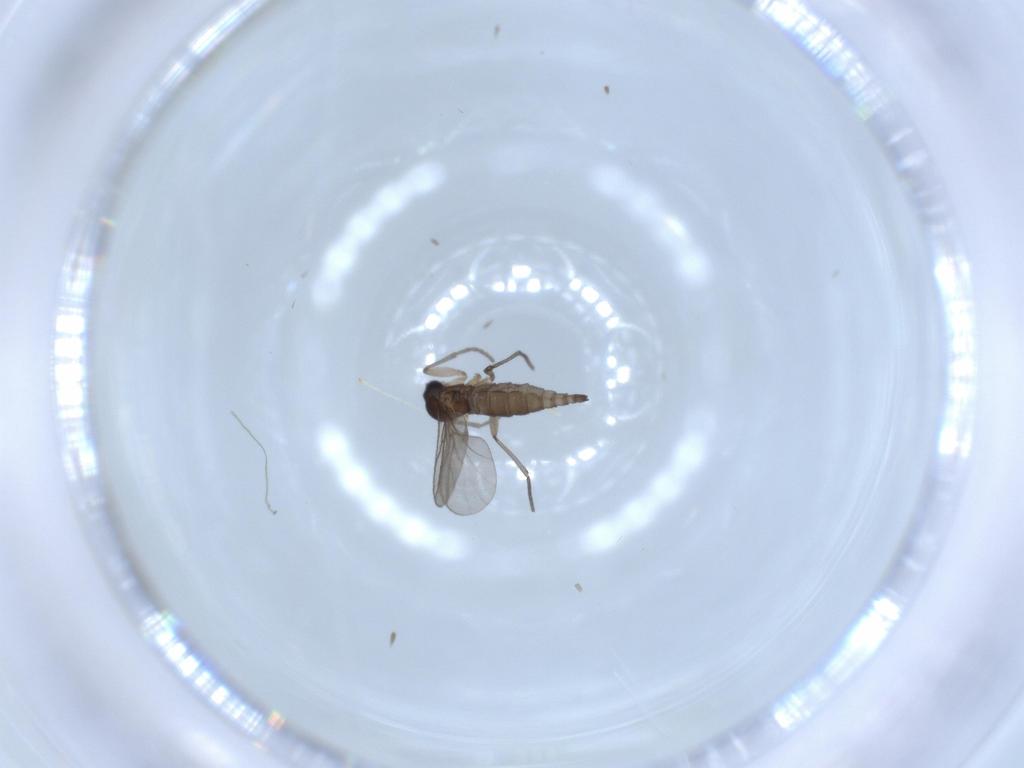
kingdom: Animalia
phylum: Arthropoda
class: Insecta
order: Diptera
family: Cecidomyiidae
